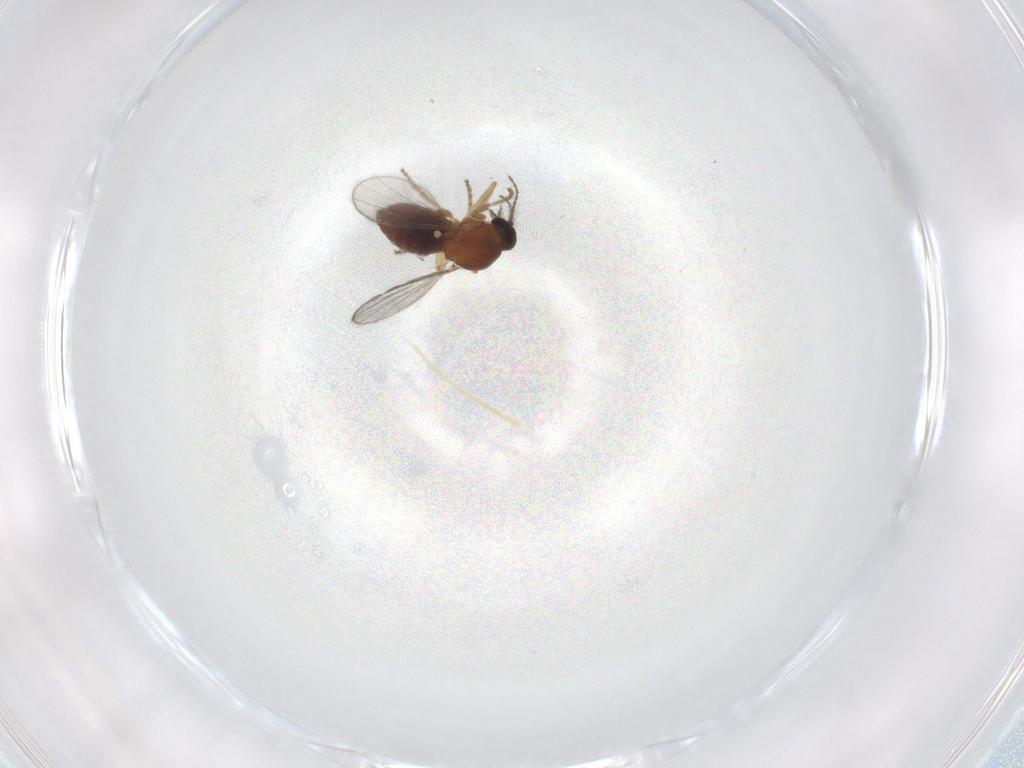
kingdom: Animalia
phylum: Arthropoda
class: Insecta
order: Diptera
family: Ceratopogonidae
